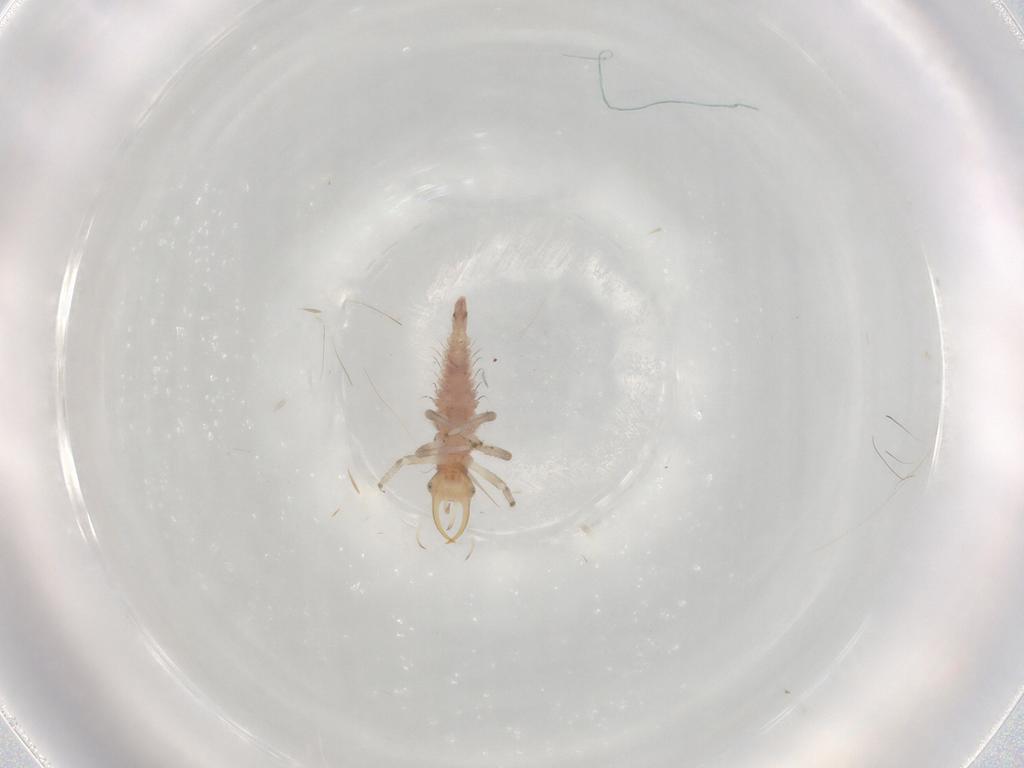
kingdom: Animalia
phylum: Arthropoda
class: Insecta
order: Neuroptera
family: Chrysopidae
